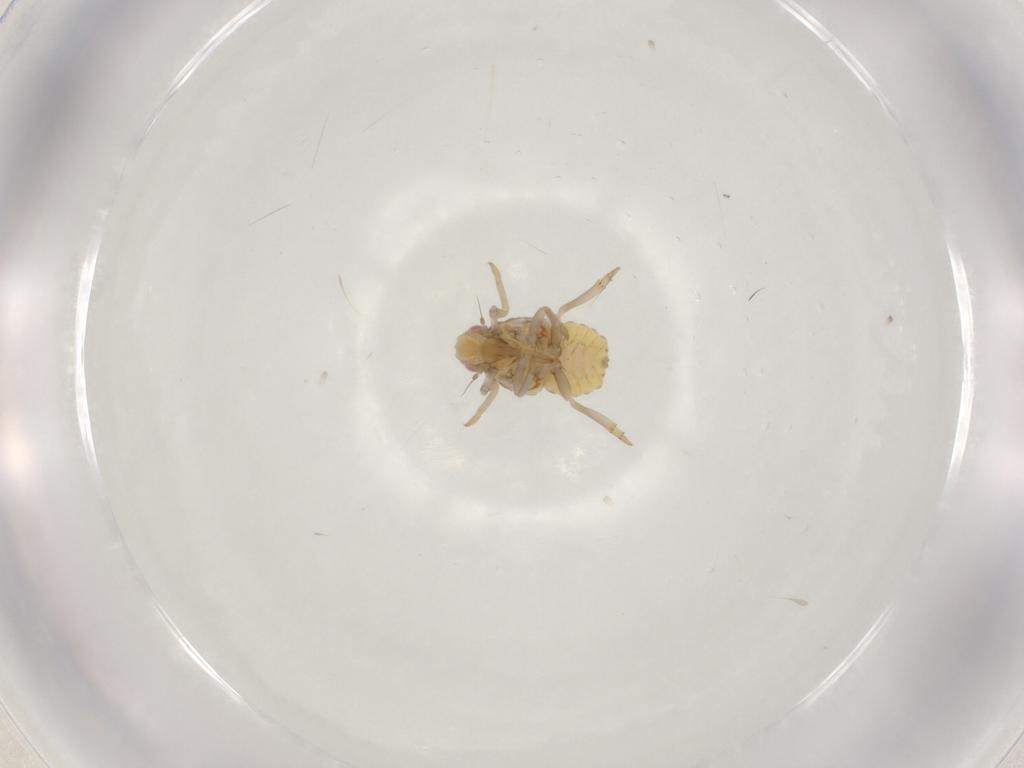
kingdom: Animalia
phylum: Arthropoda
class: Insecta
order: Hemiptera
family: Flatidae
